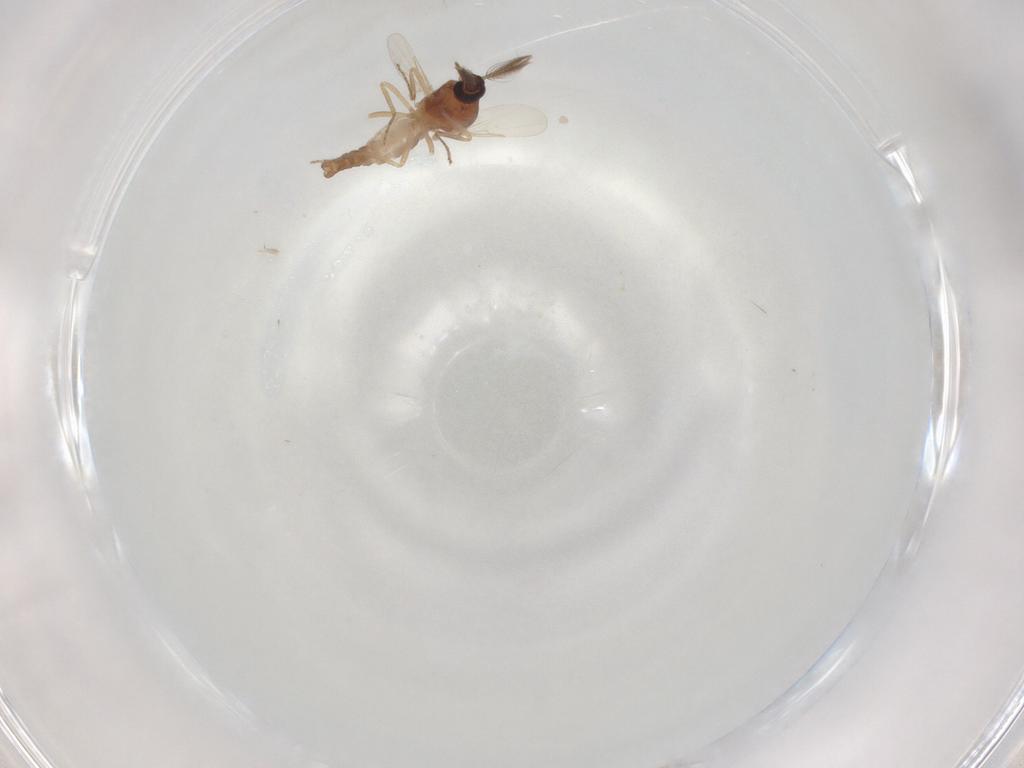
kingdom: Animalia
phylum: Arthropoda
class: Insecta
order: Diptera
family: Ceratopogonidae
